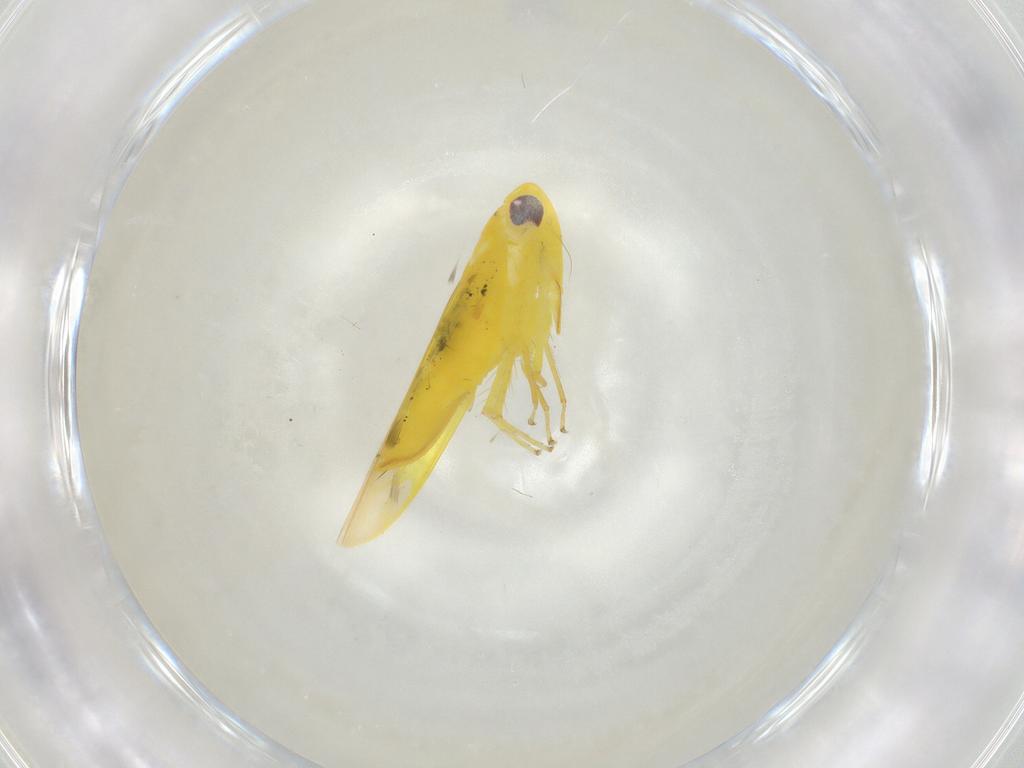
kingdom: Animalia
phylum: Arthropoda
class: Insecta
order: Hemiptera
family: Cicadellidae
